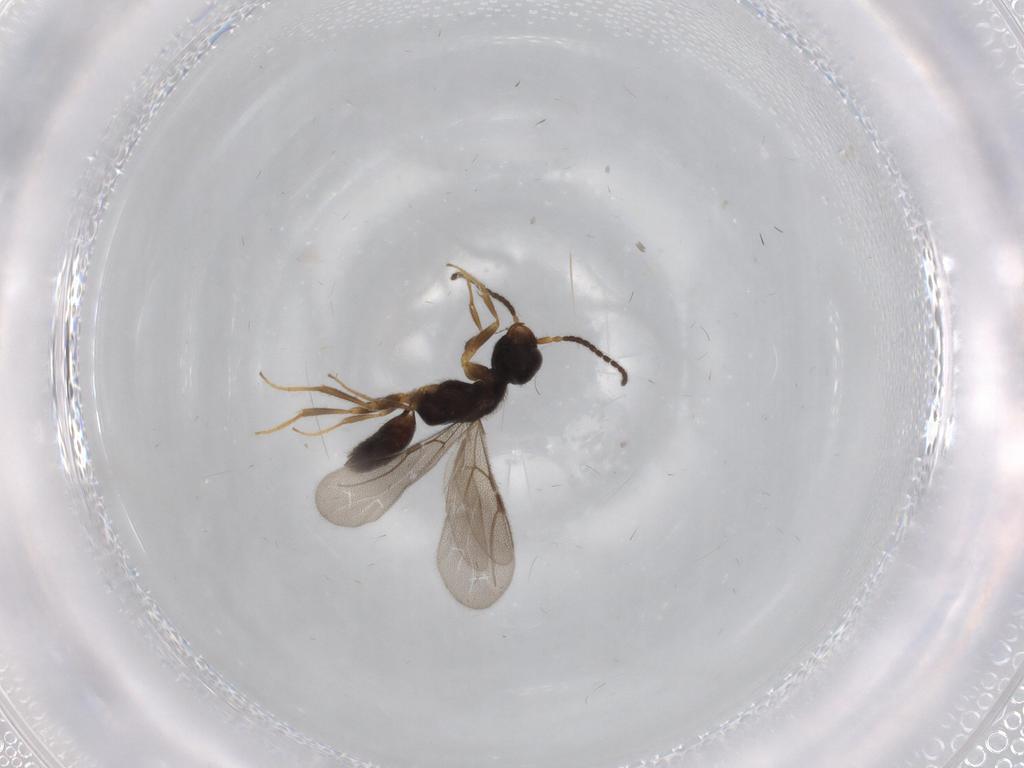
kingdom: Animalia
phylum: Arthropoda
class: Insecta
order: Hymenoptera
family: Bethylidae
